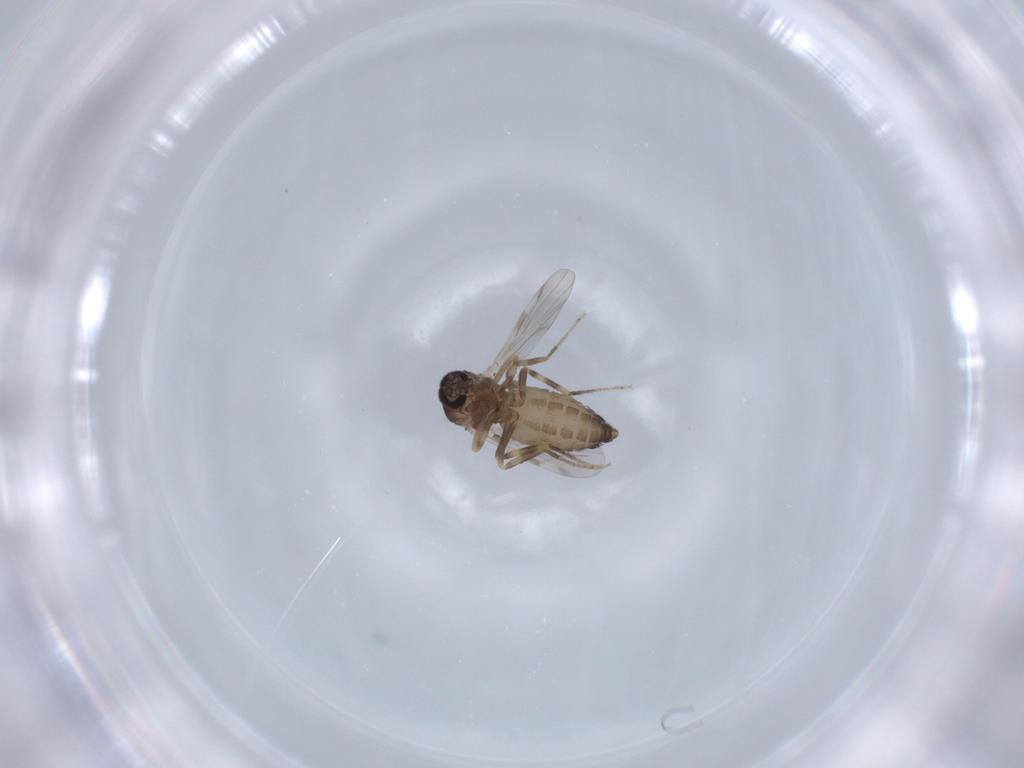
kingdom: Animalia
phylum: Arthropoda
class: Insecta
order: Diptera
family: Ceratopogonidae
